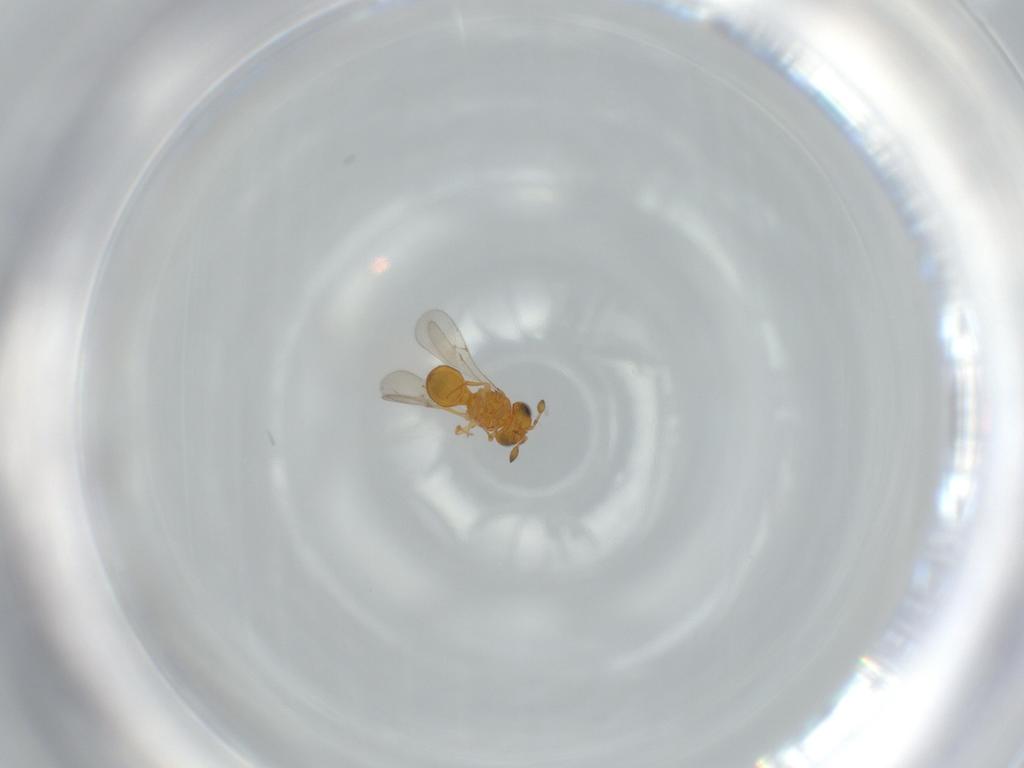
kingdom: Animalia
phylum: Arthropoda
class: Insecta
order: Hymenoptera
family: Scelionidae
